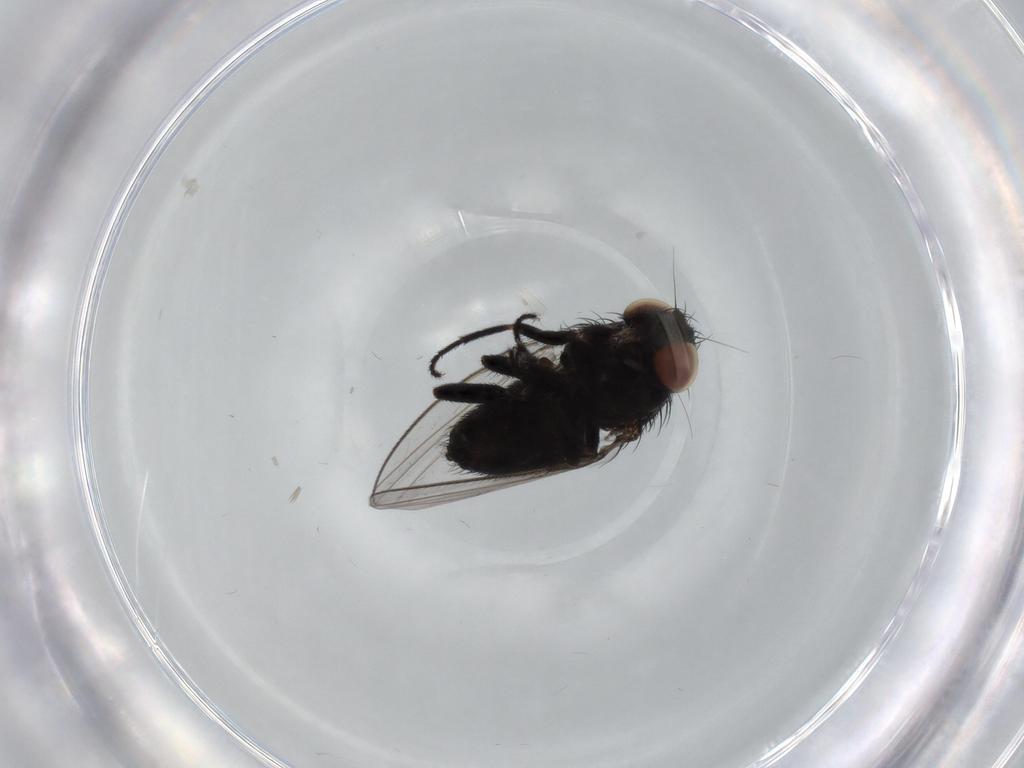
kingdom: Animalia
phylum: Arthropoda
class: Insecta
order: Diptera
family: Milichiidae
